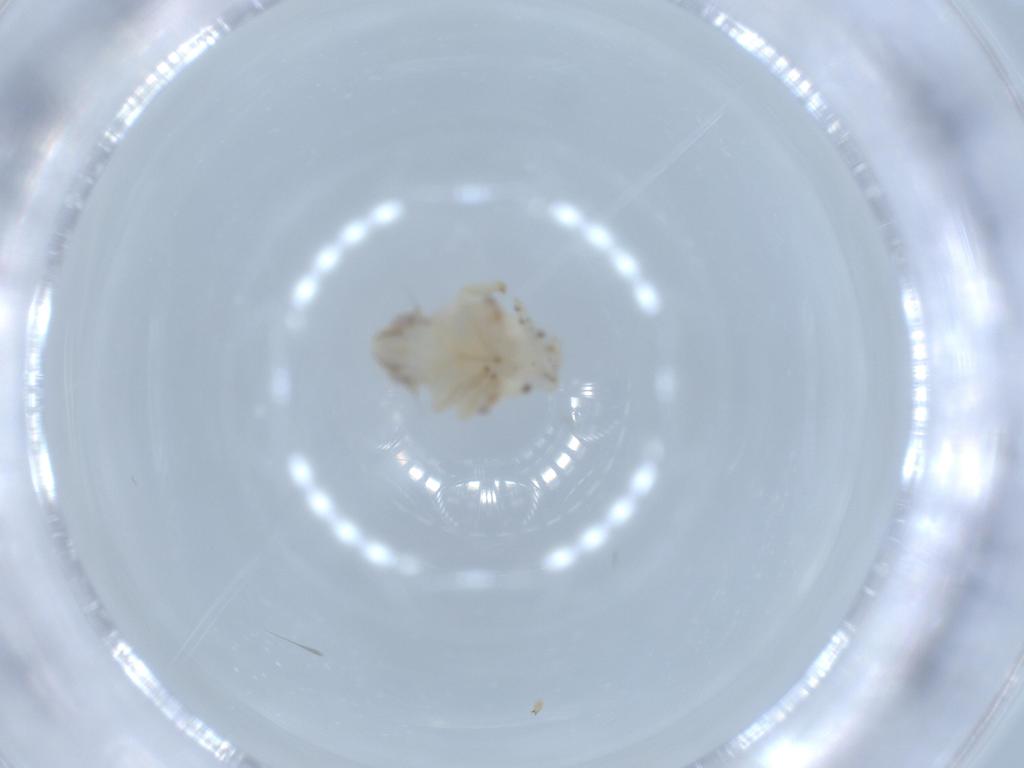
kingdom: Animalia
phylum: Arthropoda
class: Insecta
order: Hemiptera
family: Nogodinidae
